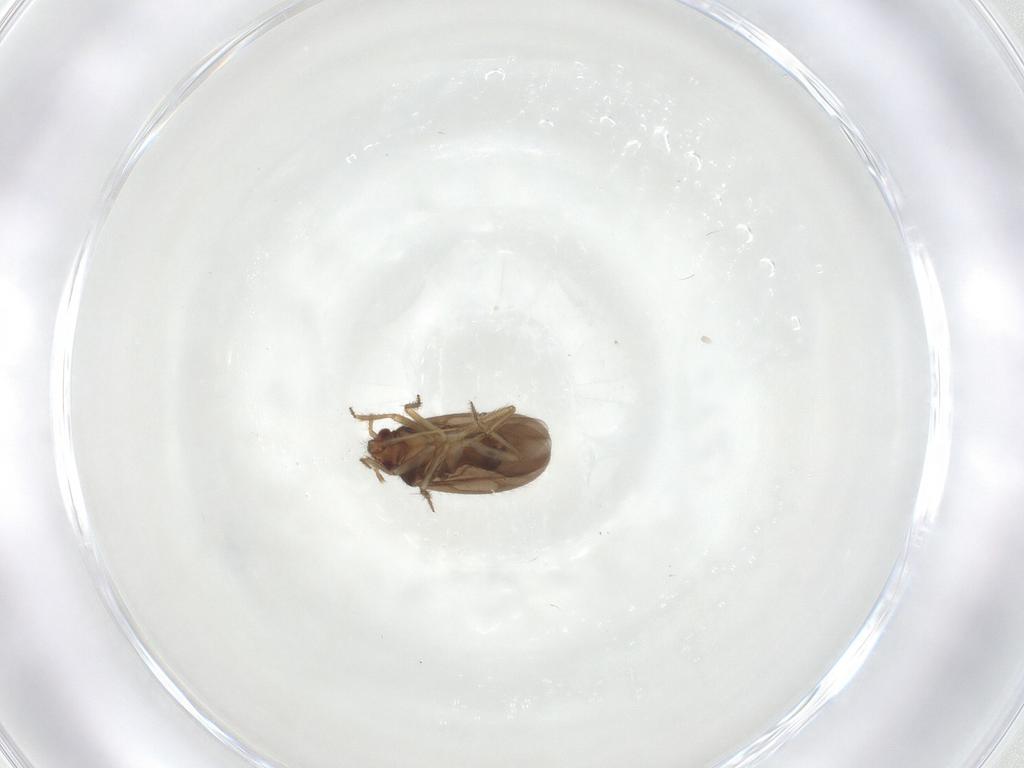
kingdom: Animalia
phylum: Arthropoda
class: Insecta
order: Hemiptera
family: Ceratocombidae
